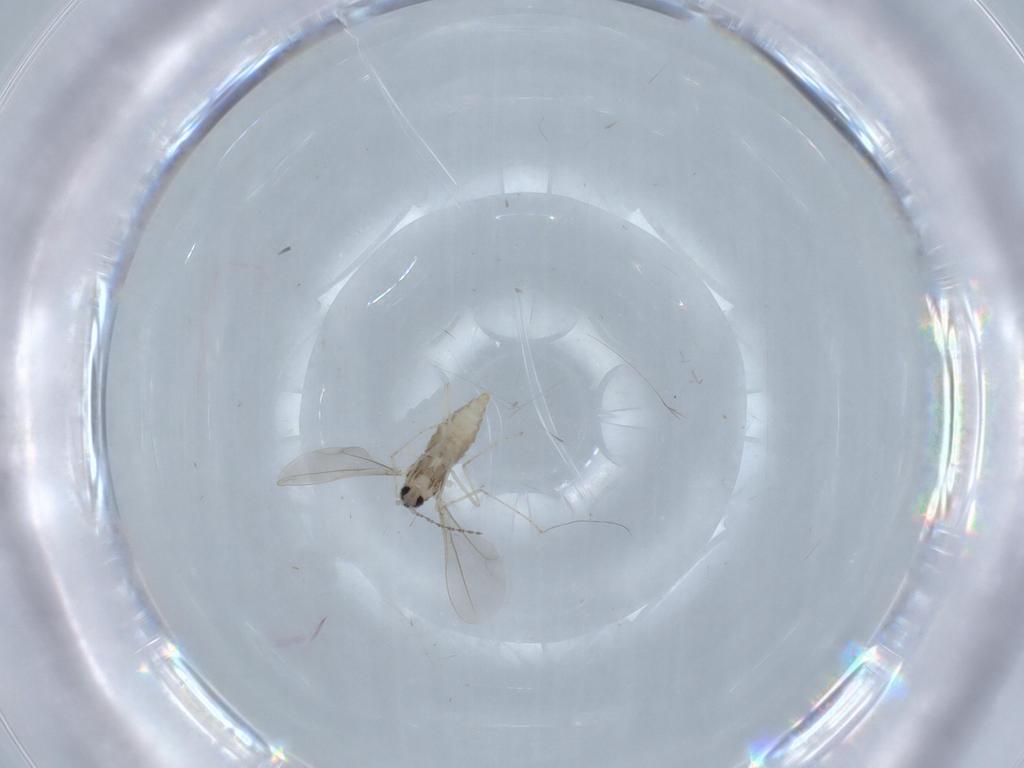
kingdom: Animalia
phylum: Arthropoda
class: Insecta
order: Diptera
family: Cecidomyiidae
